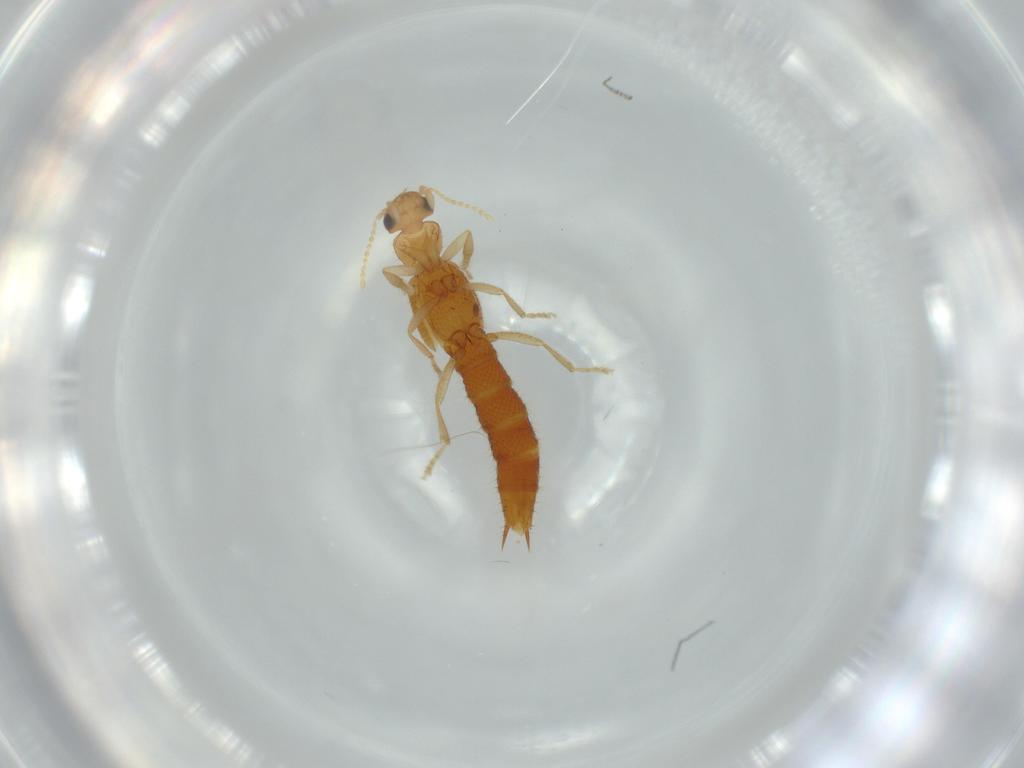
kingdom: Animalia
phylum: Arthropoda
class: Insecta
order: Coleoptera
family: Staphylinidae
